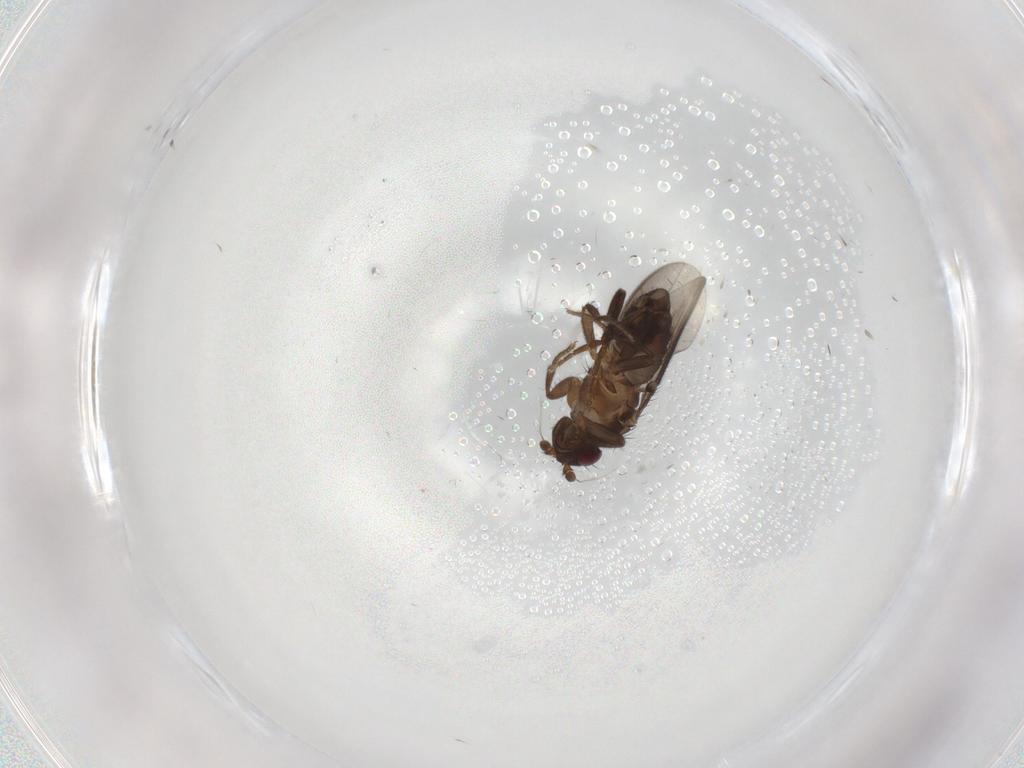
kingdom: Animalia
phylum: Arthropoda
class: Insecta
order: Diptera
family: Sphaeroceridae
